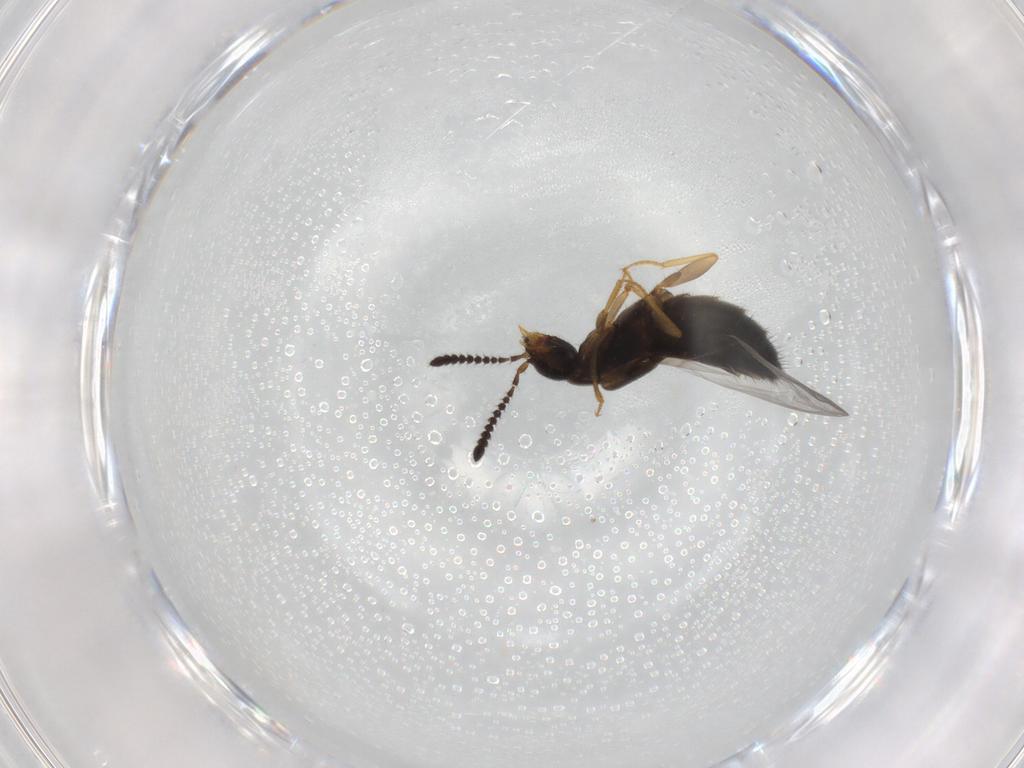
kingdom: Animalia
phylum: Arthropoda
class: Insecta
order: Coleoptera
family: Staphylinidae
